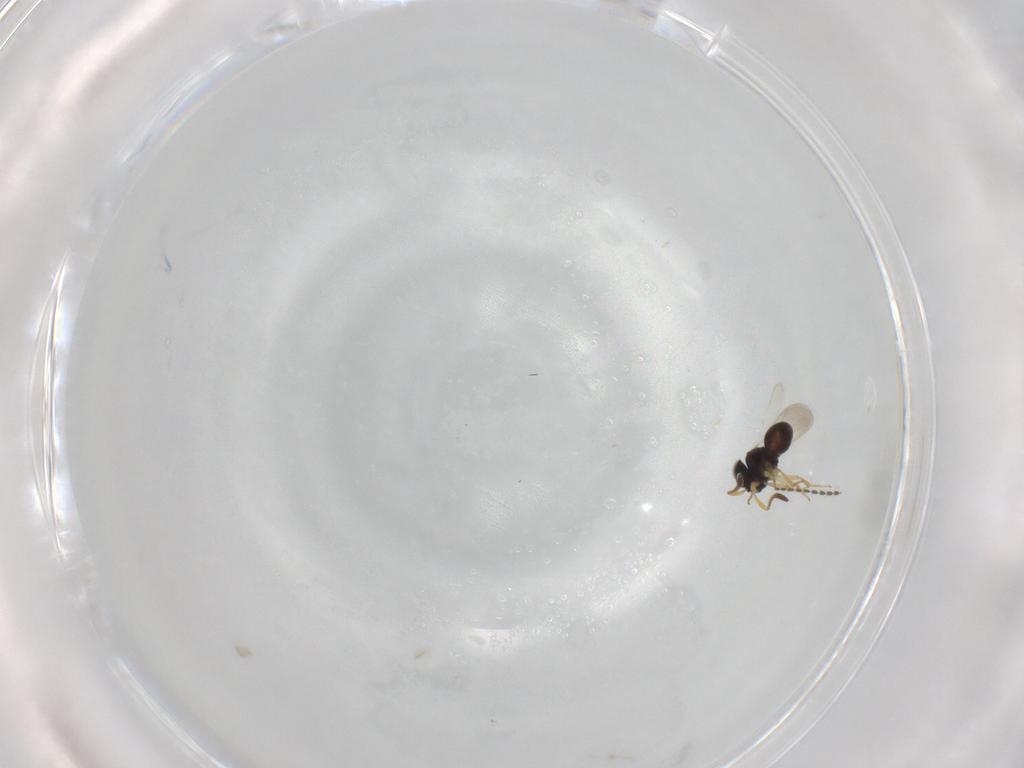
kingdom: Animalia
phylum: Arthropoda
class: Insecta
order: Hymenoptera
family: Scelionidae
